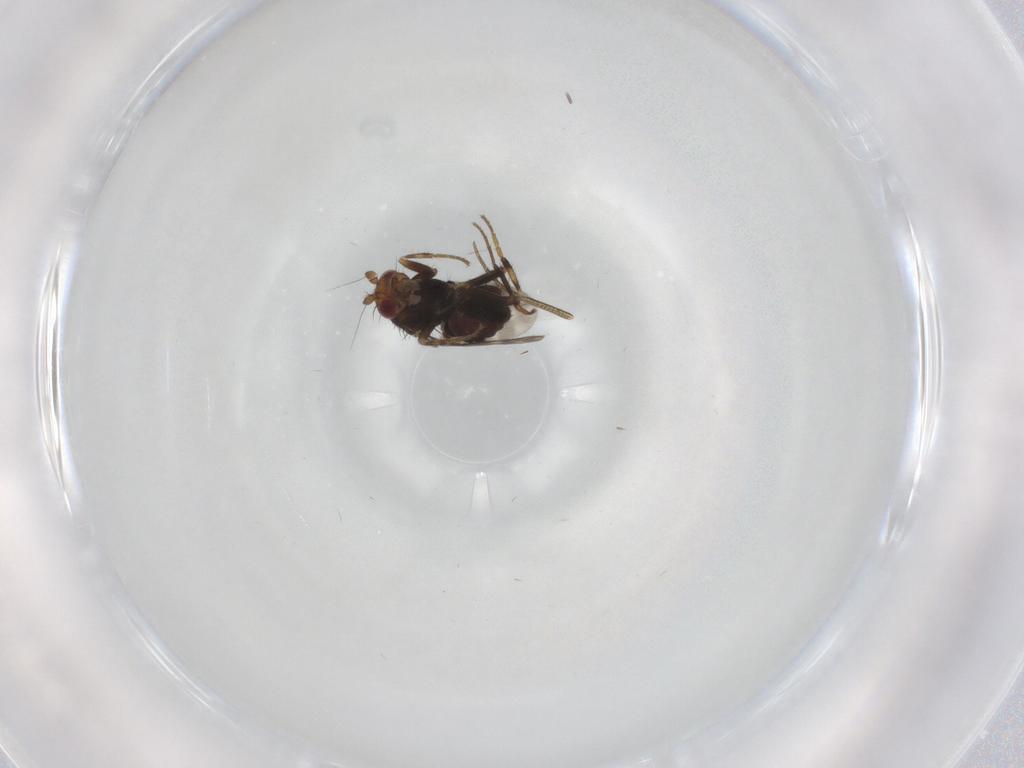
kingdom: Animalia
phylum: Arthropoda
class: Insecta
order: Diptera
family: Sphaeroceridae
